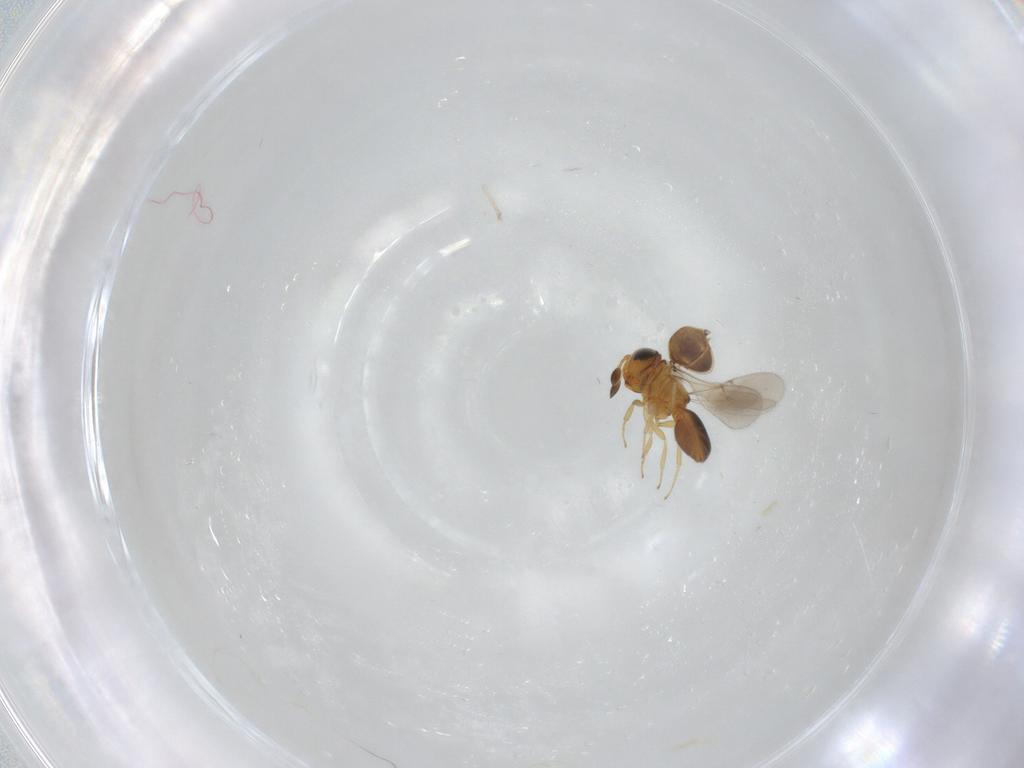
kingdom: Animalia
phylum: Arthropoda
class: Insecta
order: Hymenoptera
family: Scelionidae
